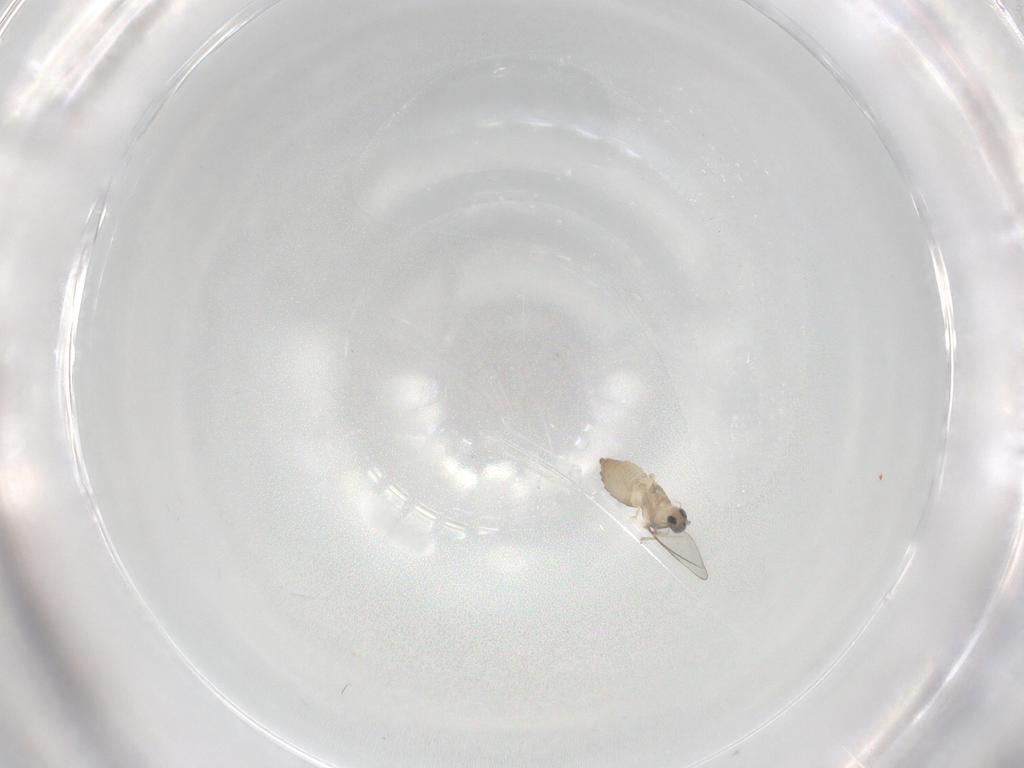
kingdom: Animalia
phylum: Arthropoda
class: Insecta
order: Diptera
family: Cecidomyiidae
